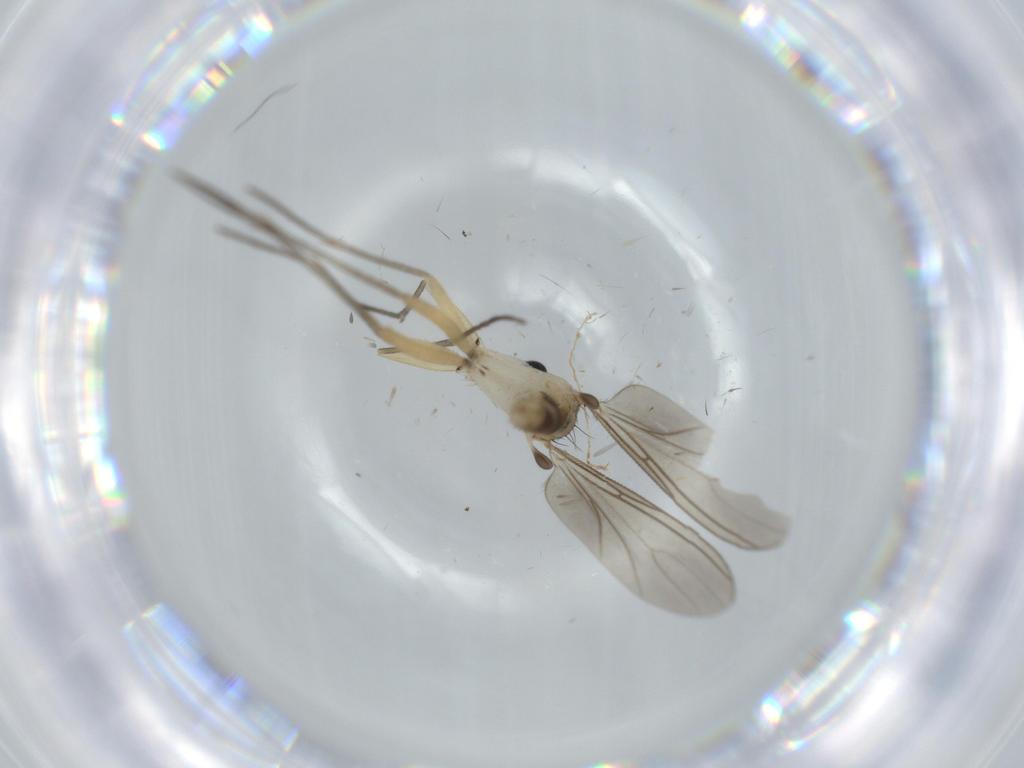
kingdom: Animalia
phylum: Arthropoda
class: Insecta
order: Diptera
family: Sciaridae
